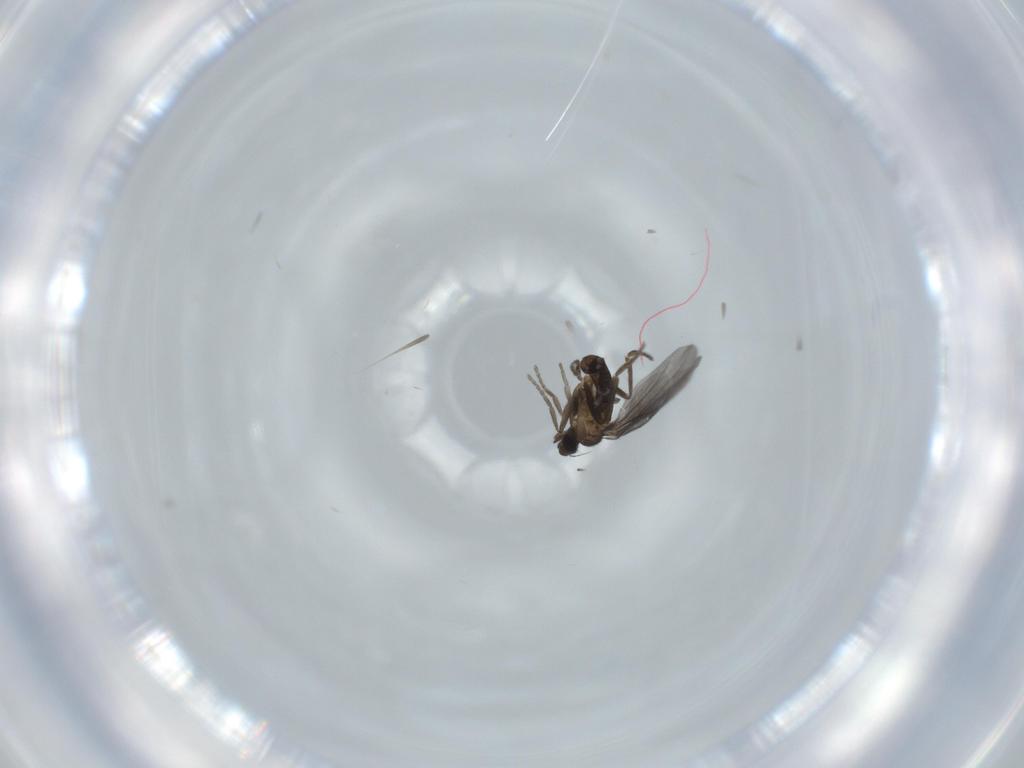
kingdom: Animalia
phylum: Arthropoda
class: Insecta
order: Diptera
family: Phoridae
